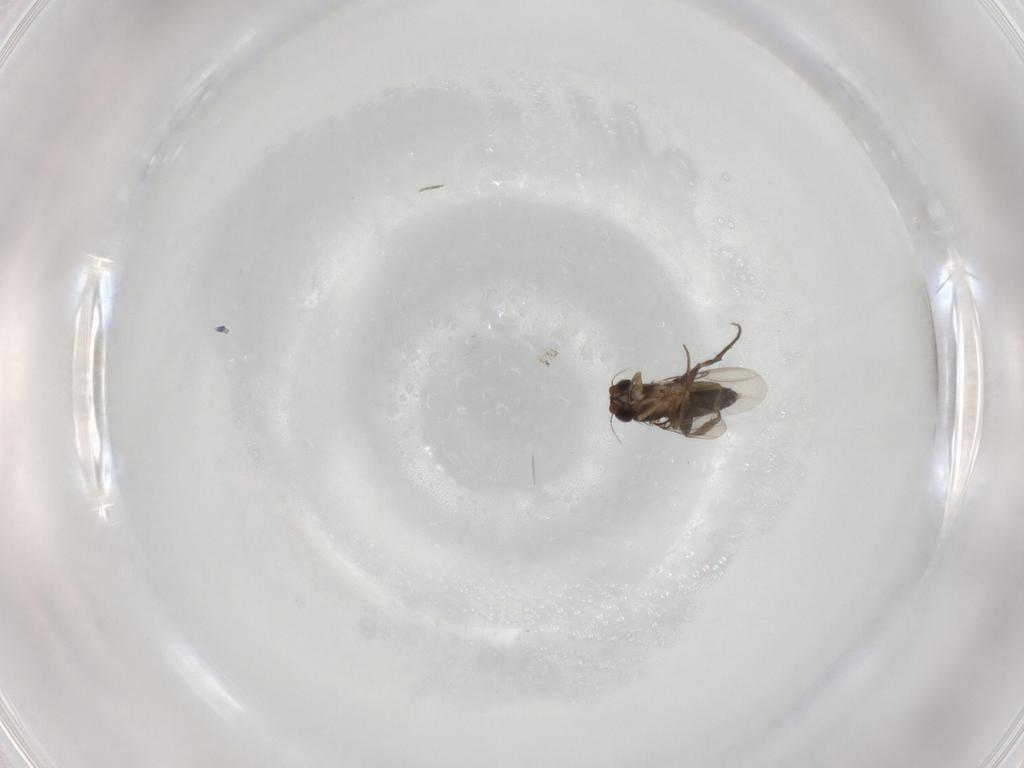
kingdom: Animalia
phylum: Arthropoda
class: Insecta
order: Diptera
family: Phoridae
